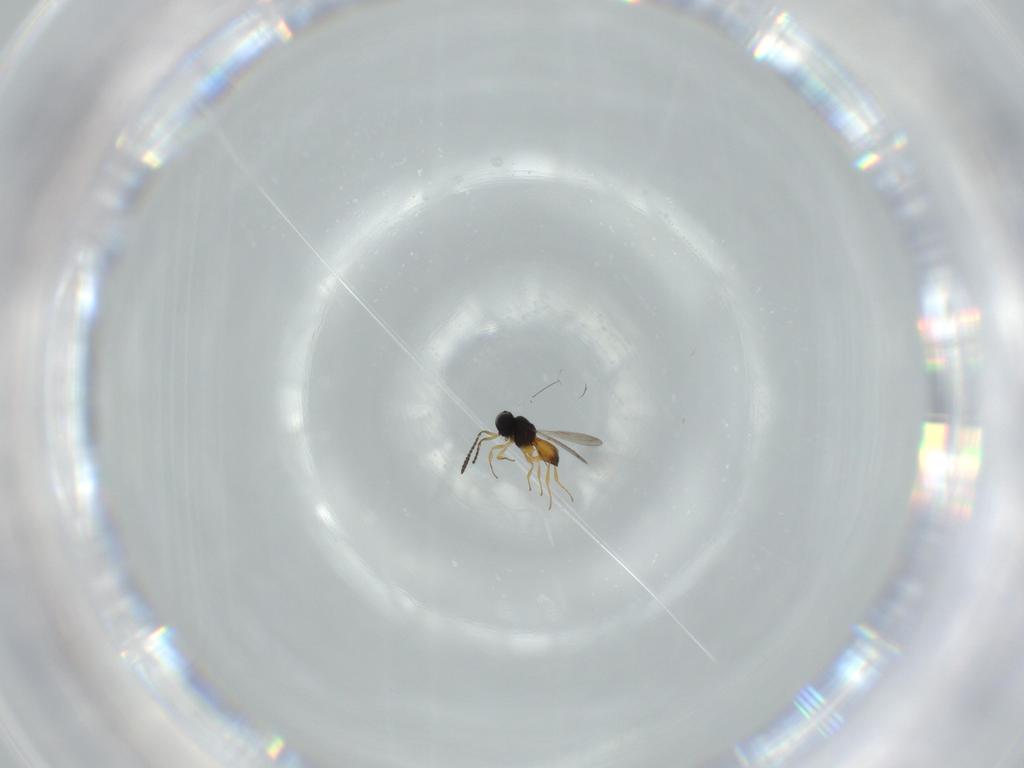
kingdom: Animalia
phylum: Arthropoda
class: Insecta
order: Hymenoptera
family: Scelionidae
